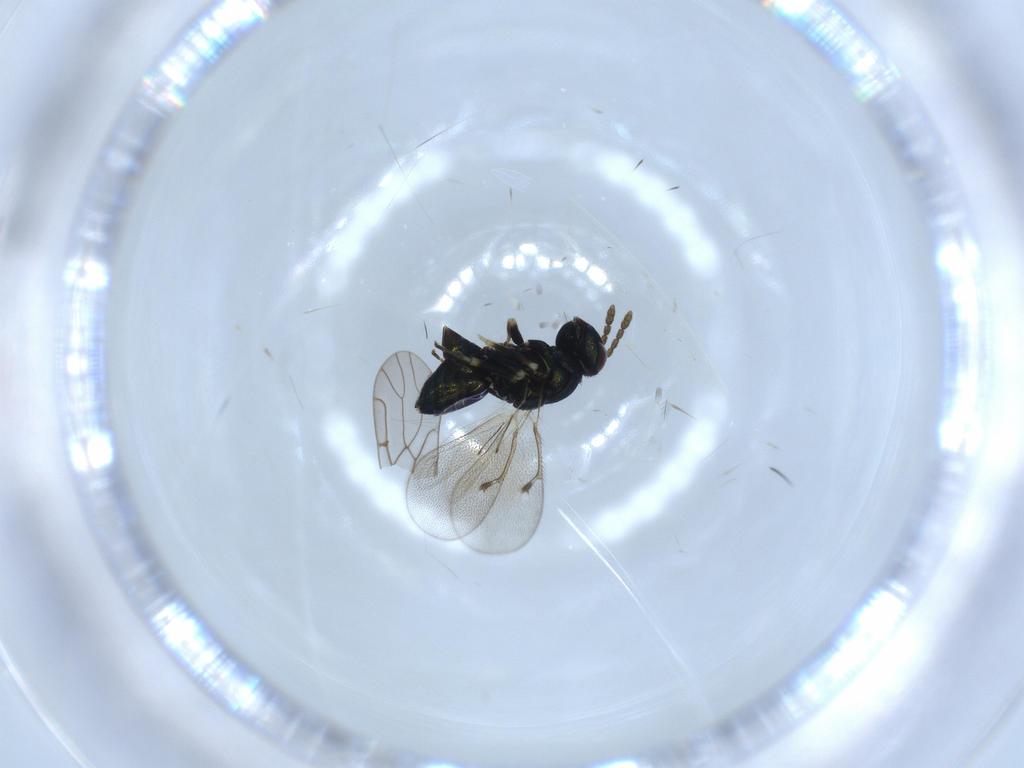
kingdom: Animalia
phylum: Arthropoda
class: Insecta
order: Hymenoptera
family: Eulophidae
